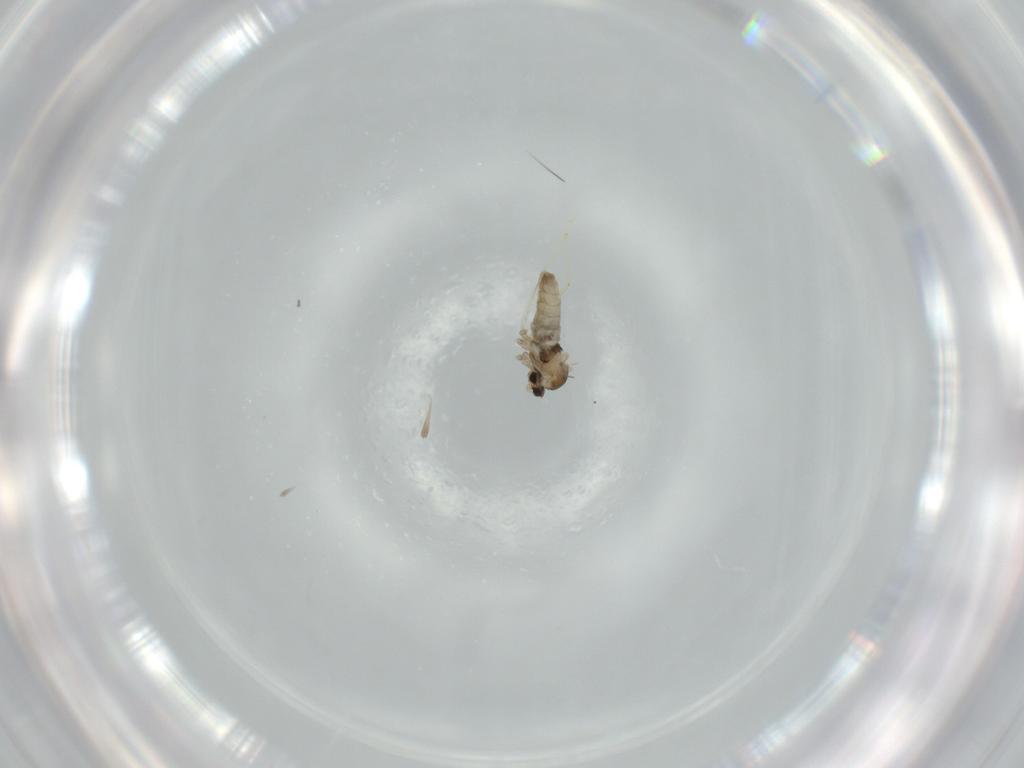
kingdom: Animalia
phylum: Arthropoda
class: Insecta
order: Diptera
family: Cecidomyiidae
